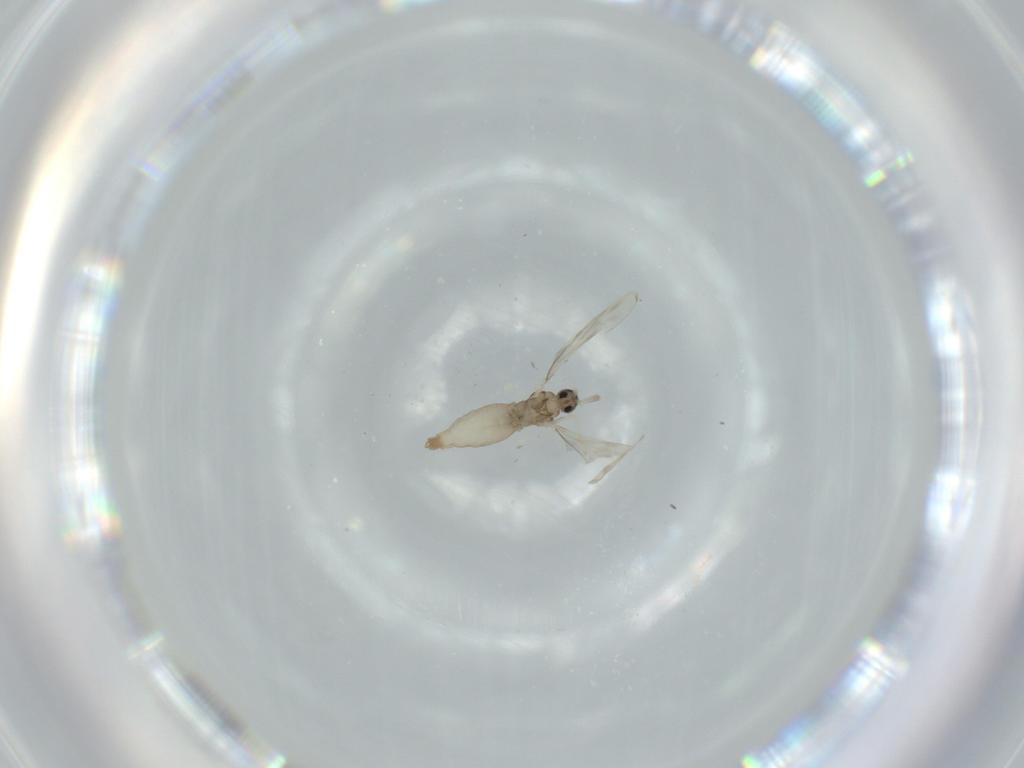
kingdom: Animalia
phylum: Arthropoda
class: Insecta
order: Diptera
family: Cecidomyiidae
